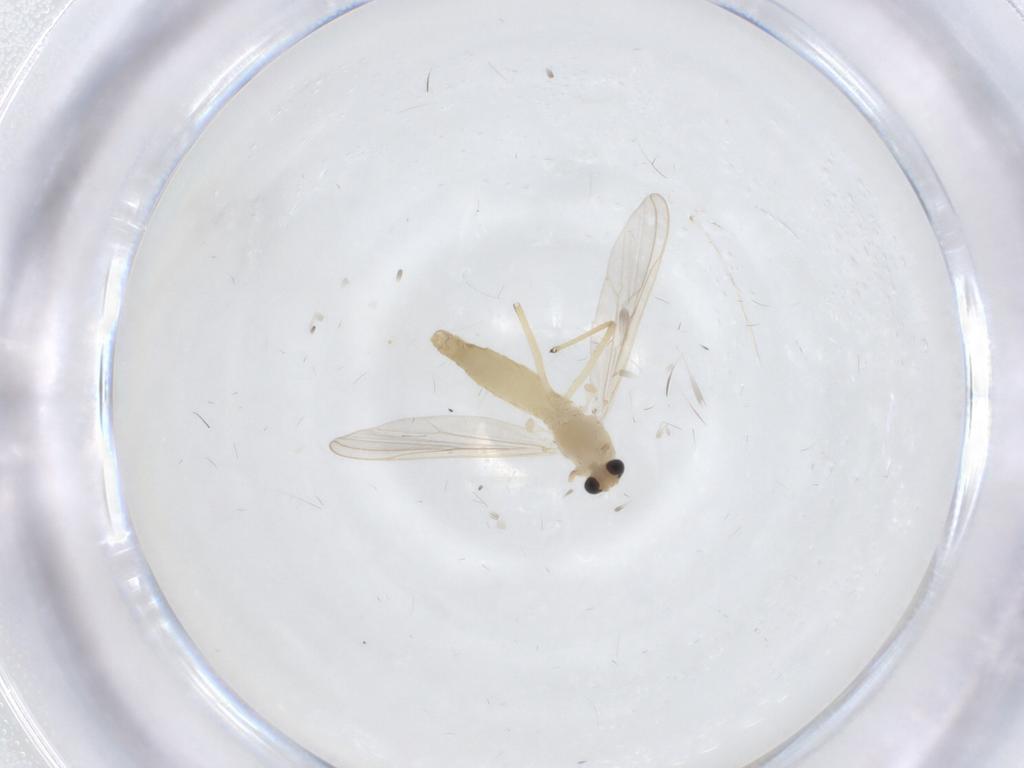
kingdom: Animalia
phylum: Arthropoda
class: Insecta
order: Diptera
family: Chironomidae
